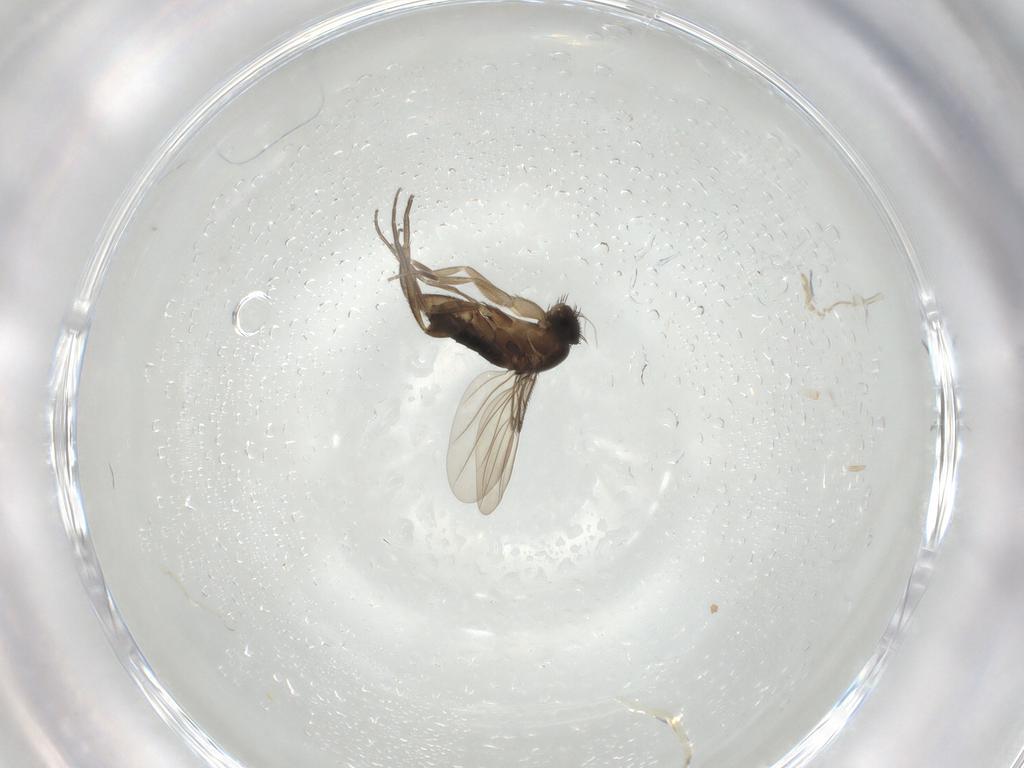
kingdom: Animalia
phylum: Arthropoda
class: Insecta
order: Diptera
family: Phoridae
